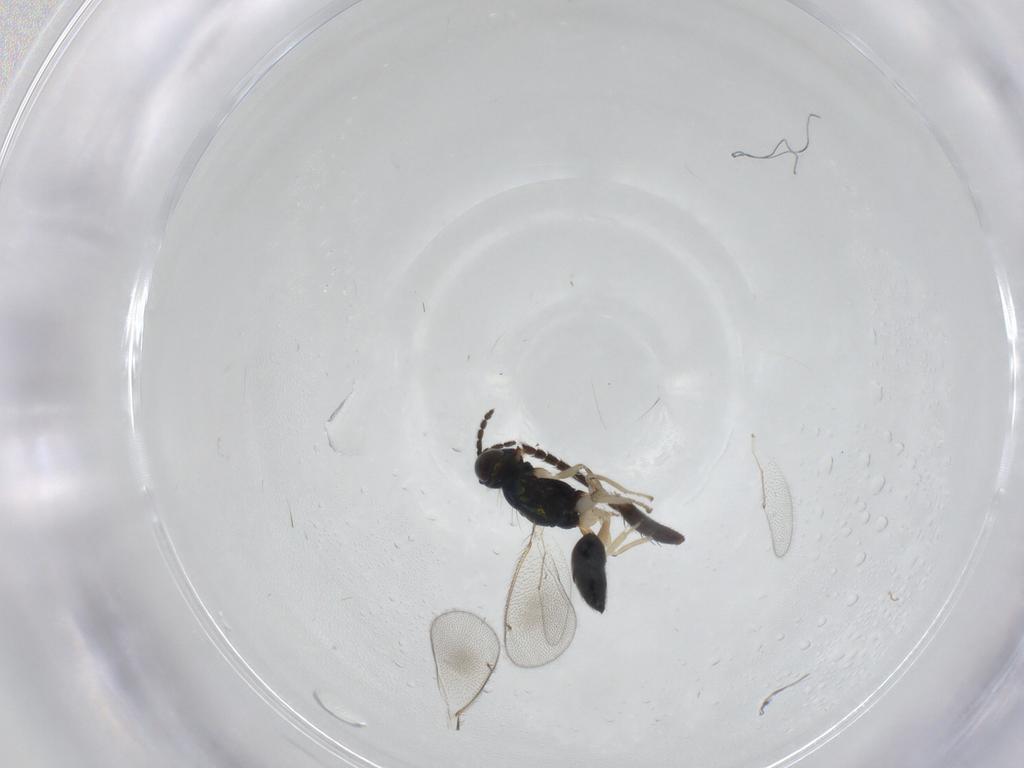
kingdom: Animalia
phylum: Arthropoda
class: Insecta
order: Hymenoptera
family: Eulophidae
